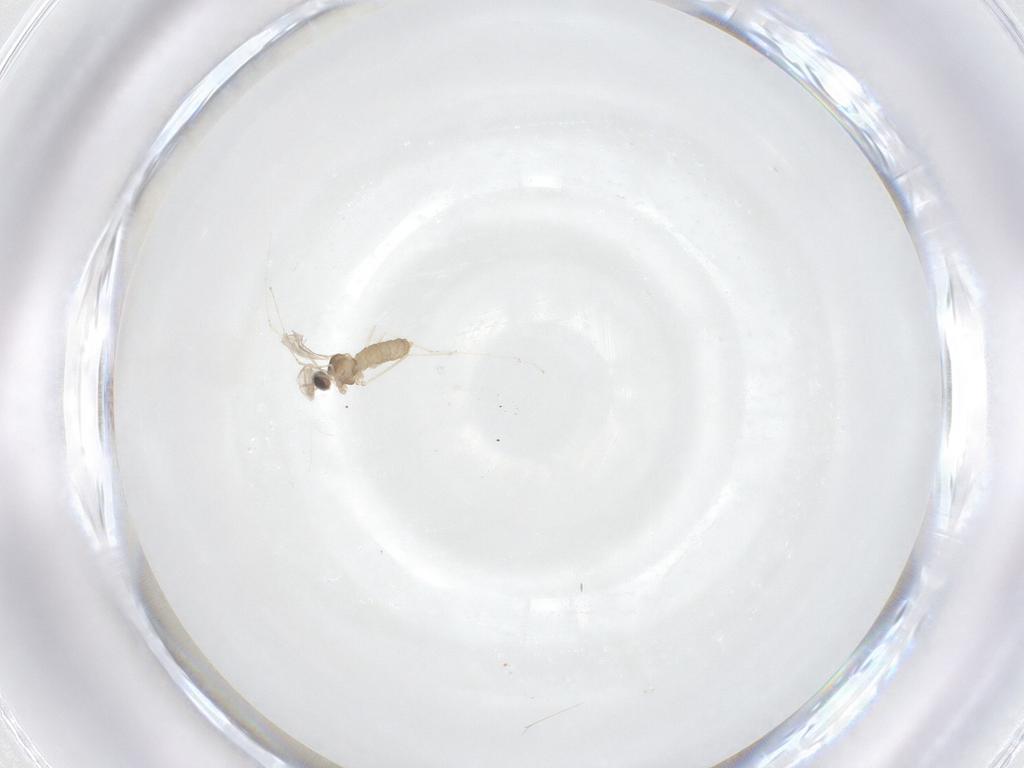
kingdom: Animalia
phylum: Arthropoda
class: Insecta
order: Diptera
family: Cecidomyiidae
